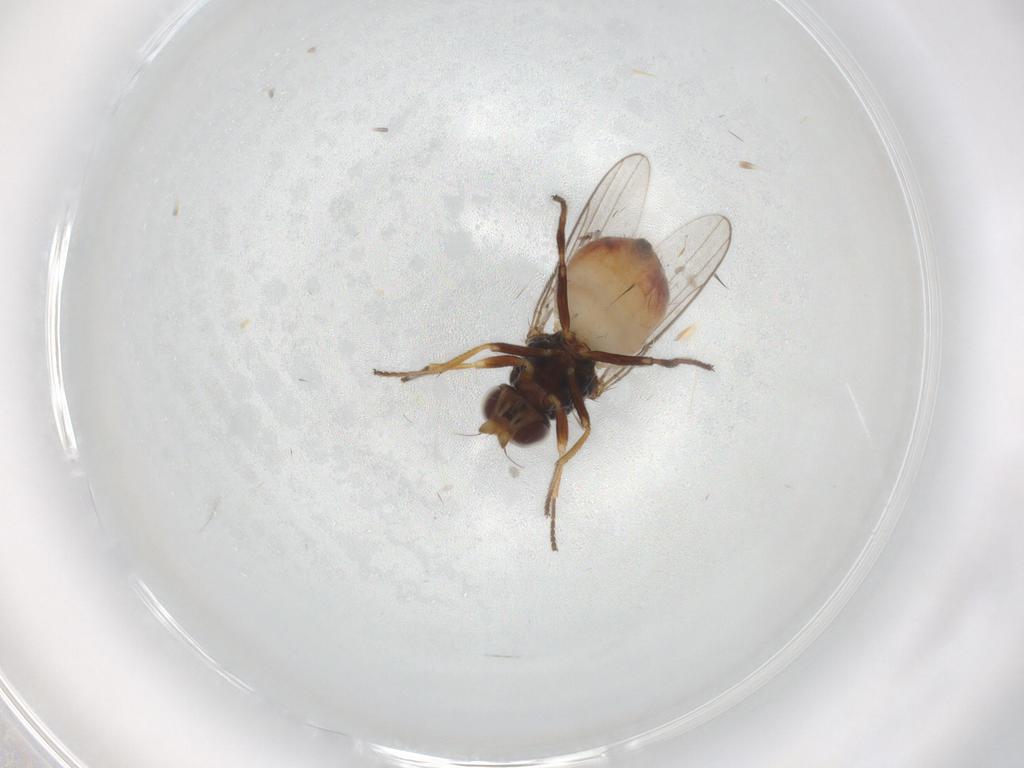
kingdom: Animalia
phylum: Arthropoda
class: Insecta
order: Diptera
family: Chloropidae
